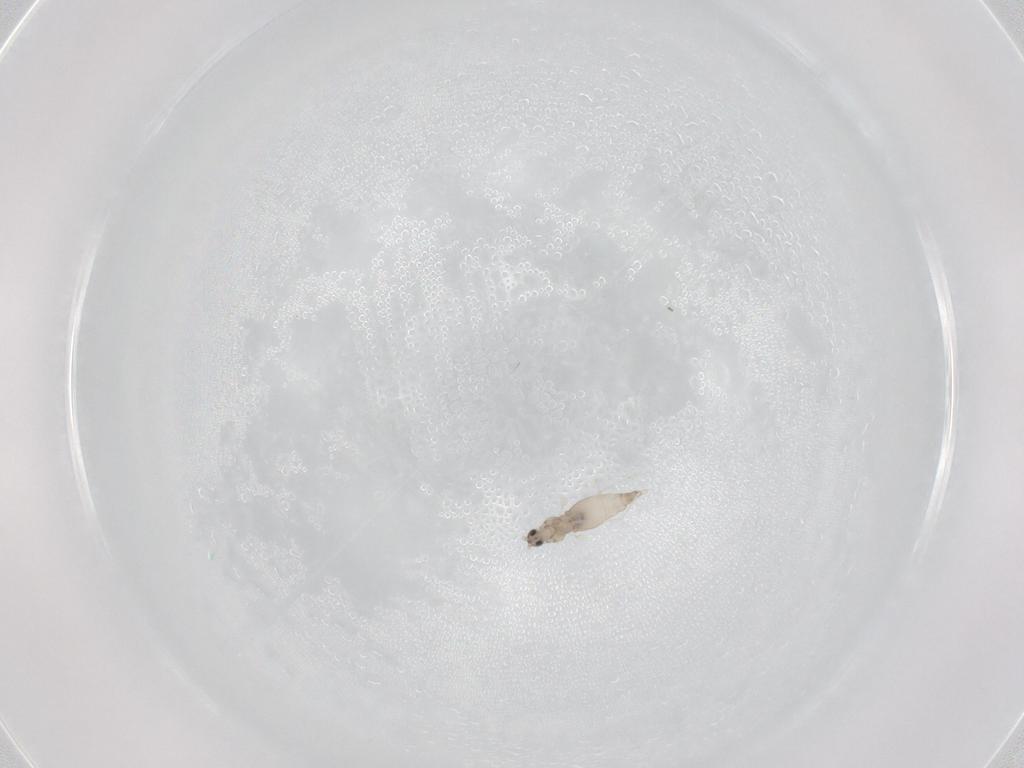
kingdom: Animalia
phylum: Arthropoda
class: Insecta
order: Diptera
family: Cecidomyiidae
